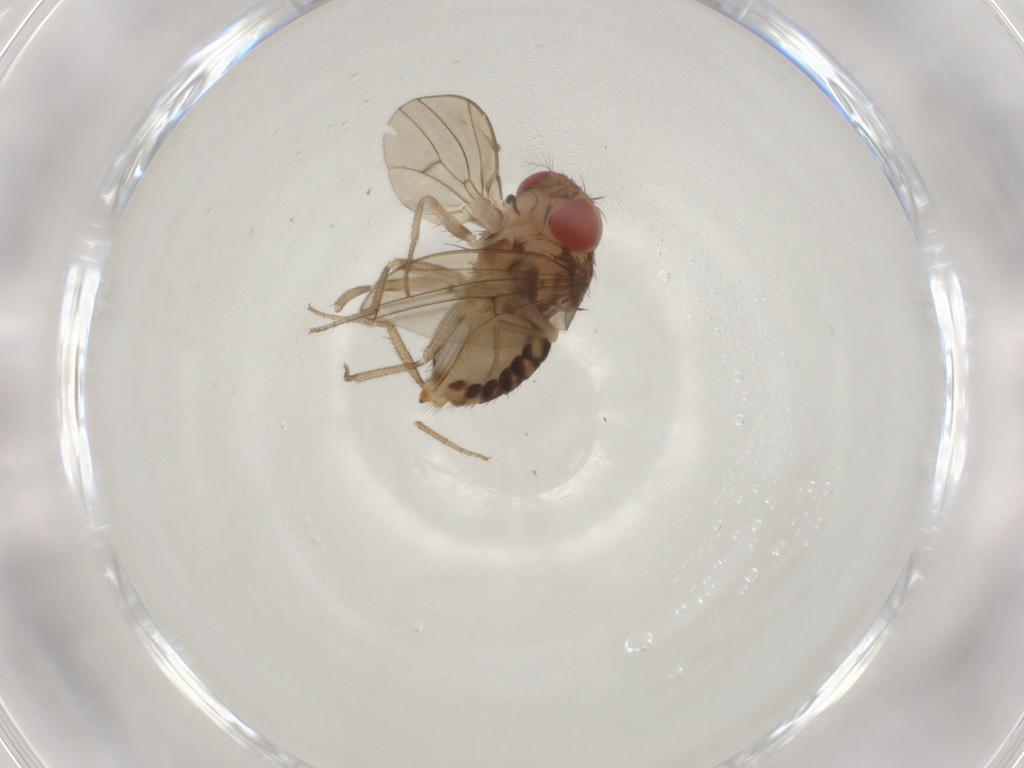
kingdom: Animalia
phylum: Arthropoda
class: Insecta
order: Diptera
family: Drosophilidae
